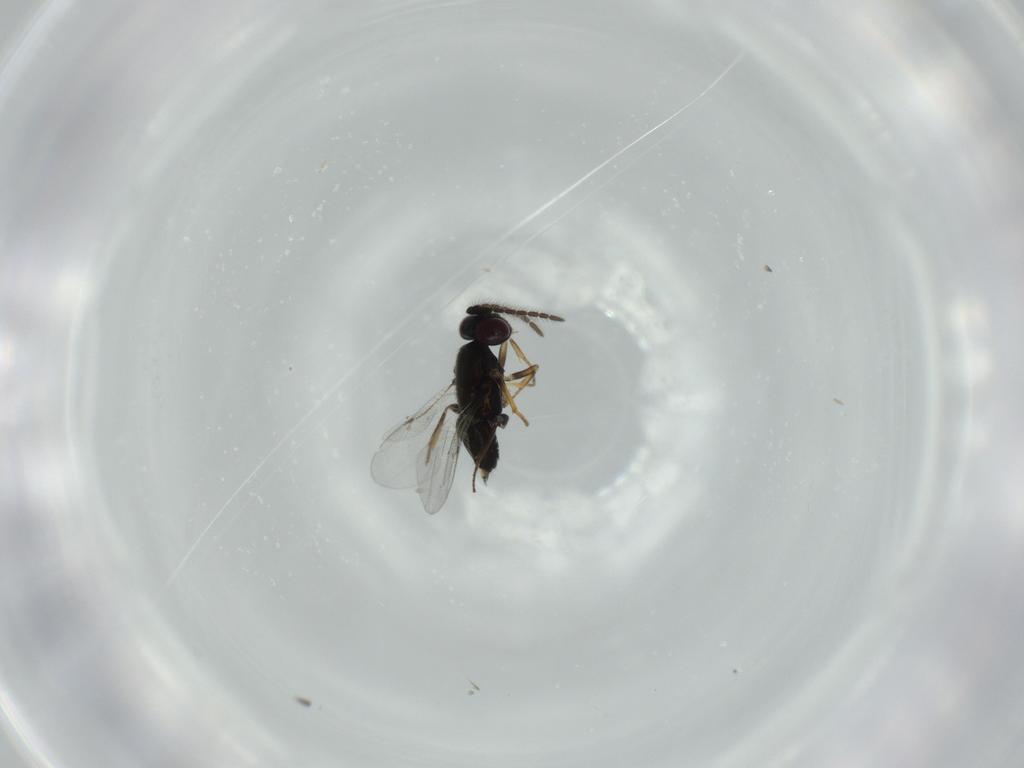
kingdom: Animalia
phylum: Arthropoda
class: Insecta
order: Hymenoptera
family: Encyrtidae
